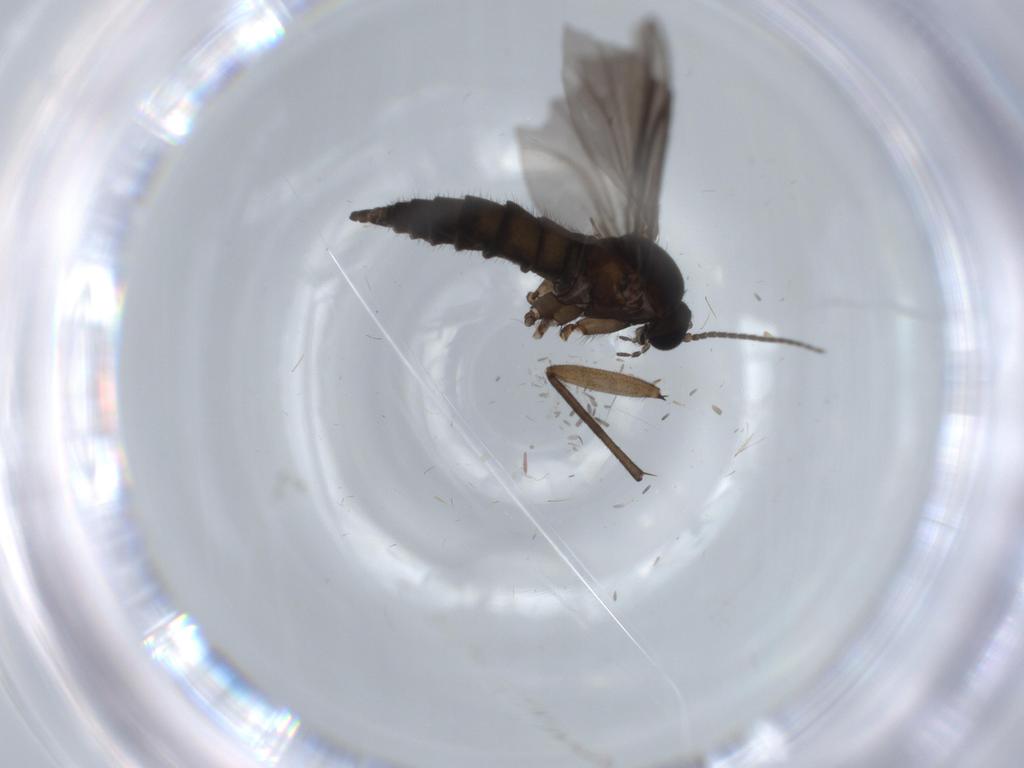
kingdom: Animalia
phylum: Arthropoda
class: Insecta
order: Diptera
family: Sciaridae
